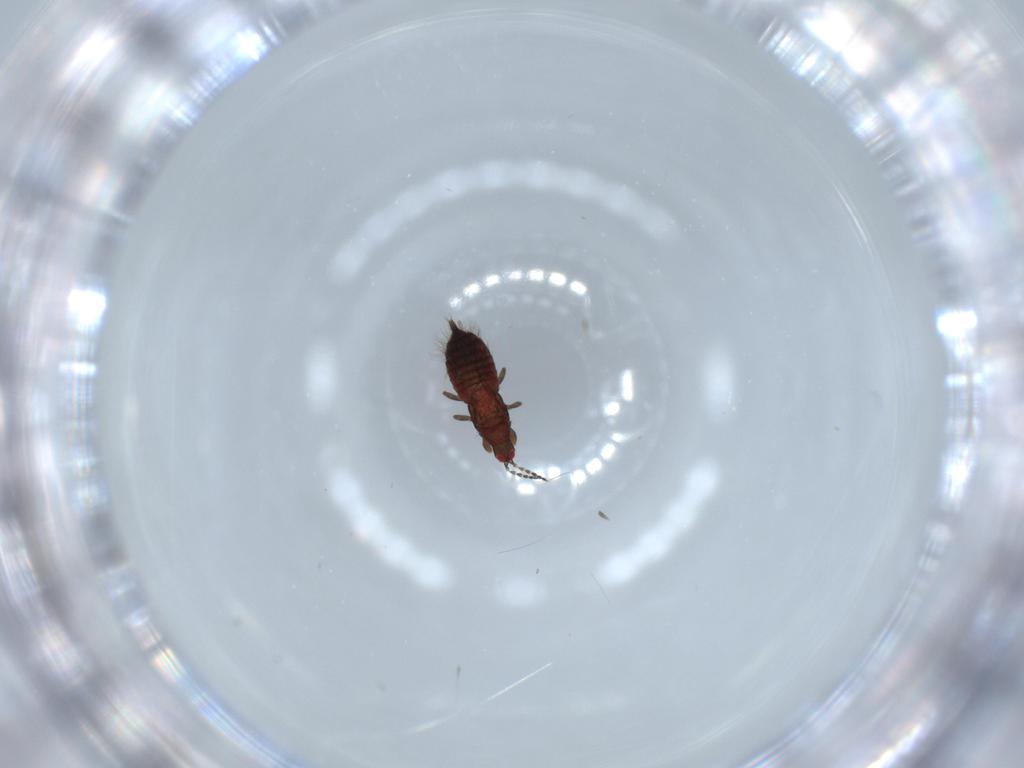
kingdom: Animalia
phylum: Arthropoda
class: Insecta
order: Thysanoptera
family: Phlaeothripidae
